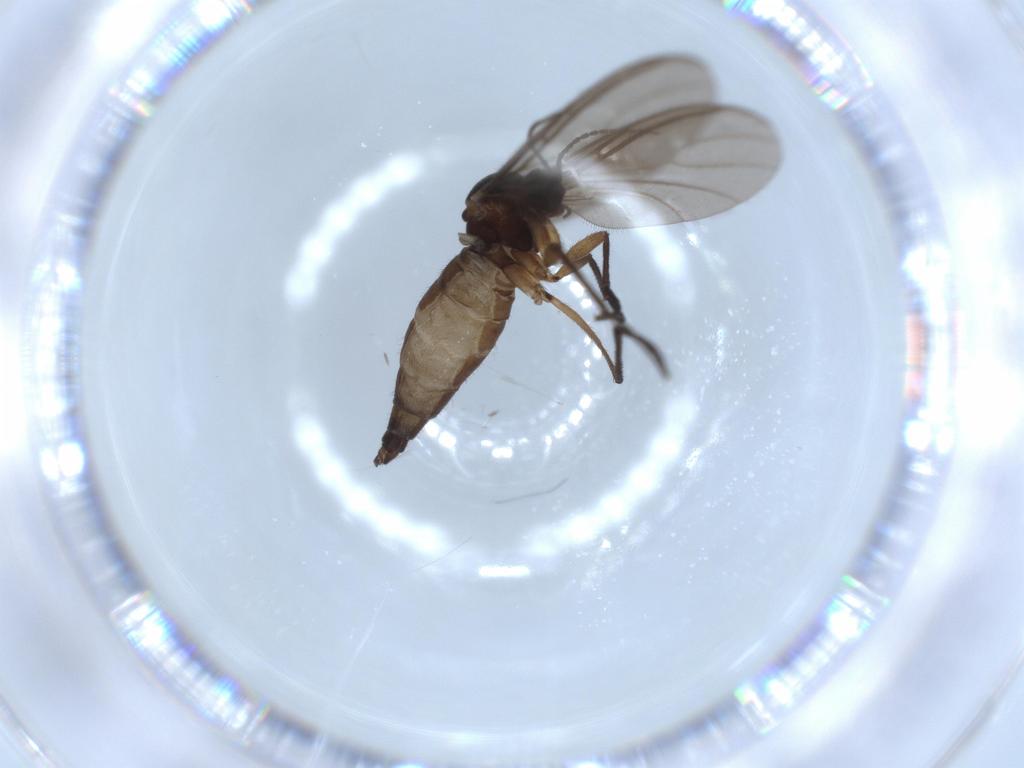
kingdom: Animalia
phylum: Arthropoda
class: Insecta
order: Diptera
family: Sciaridae
